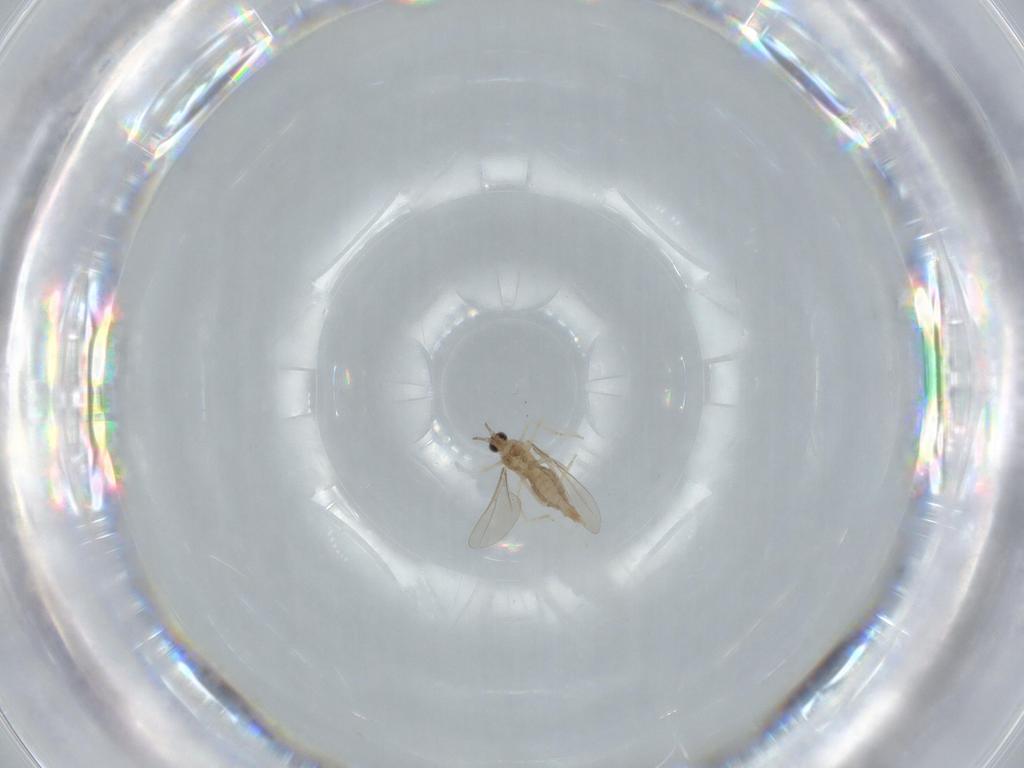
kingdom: Animalia
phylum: Arthropoda
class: Insecta
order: Diptera
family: Cecidomyiidae
